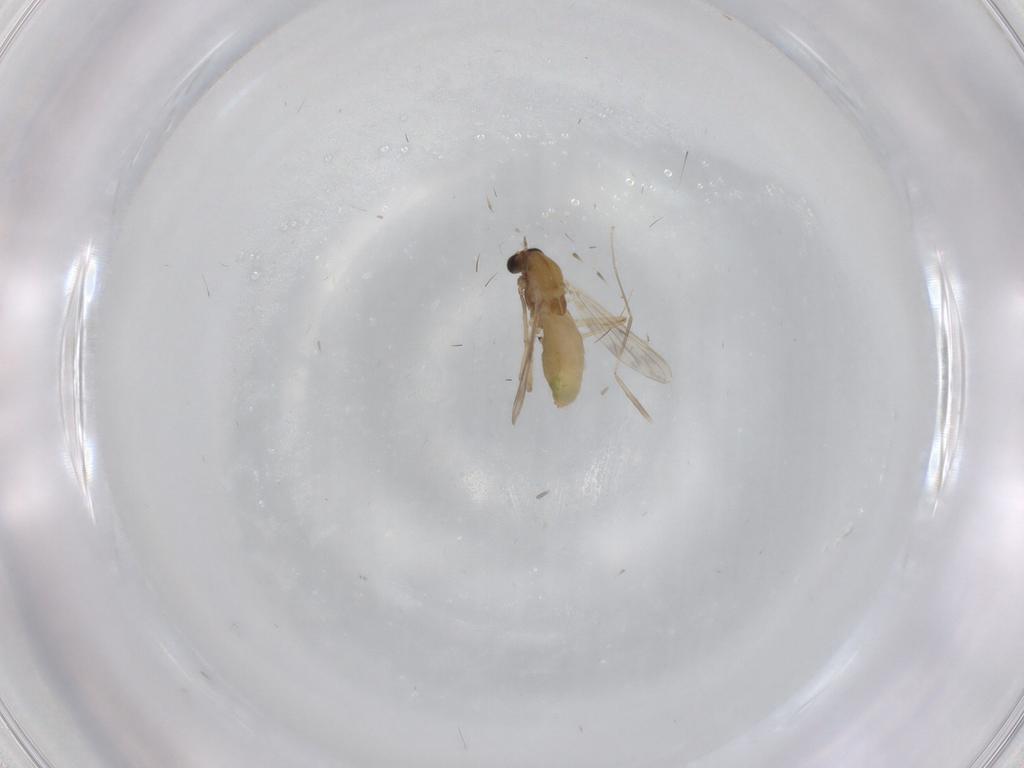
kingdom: Animalia
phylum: Arthropoda
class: Insecta
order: Diptera
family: Chironomidae
